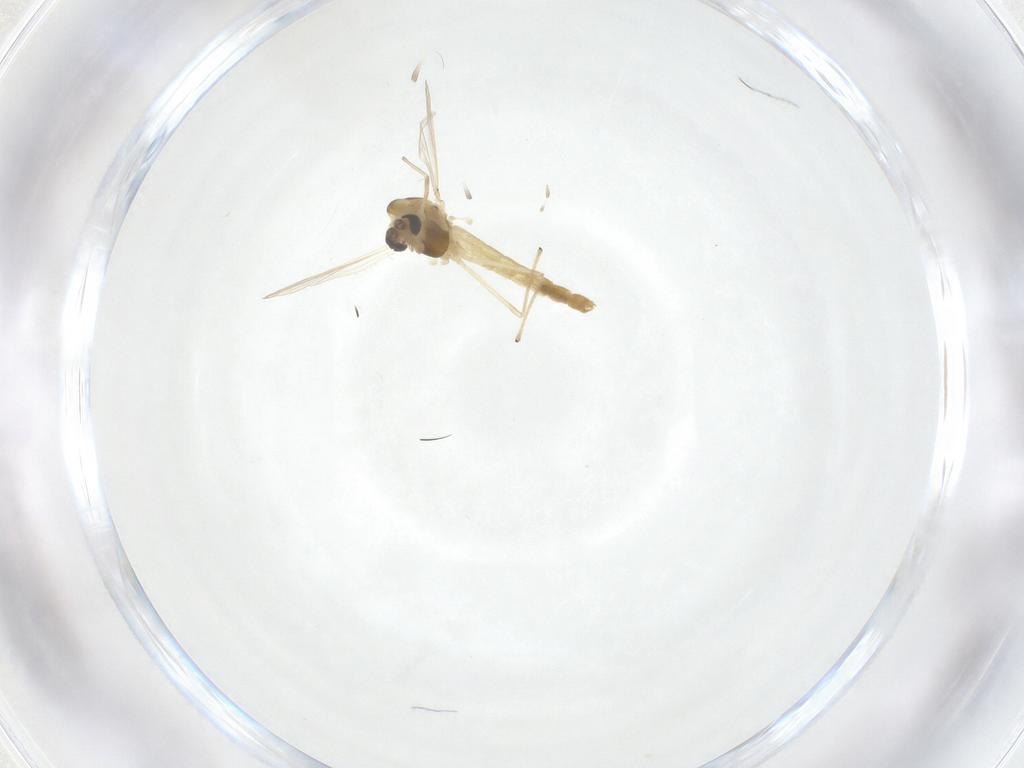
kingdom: Animalia
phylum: Arthropoda
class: Insecta
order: Diptera
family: Chironomidae
